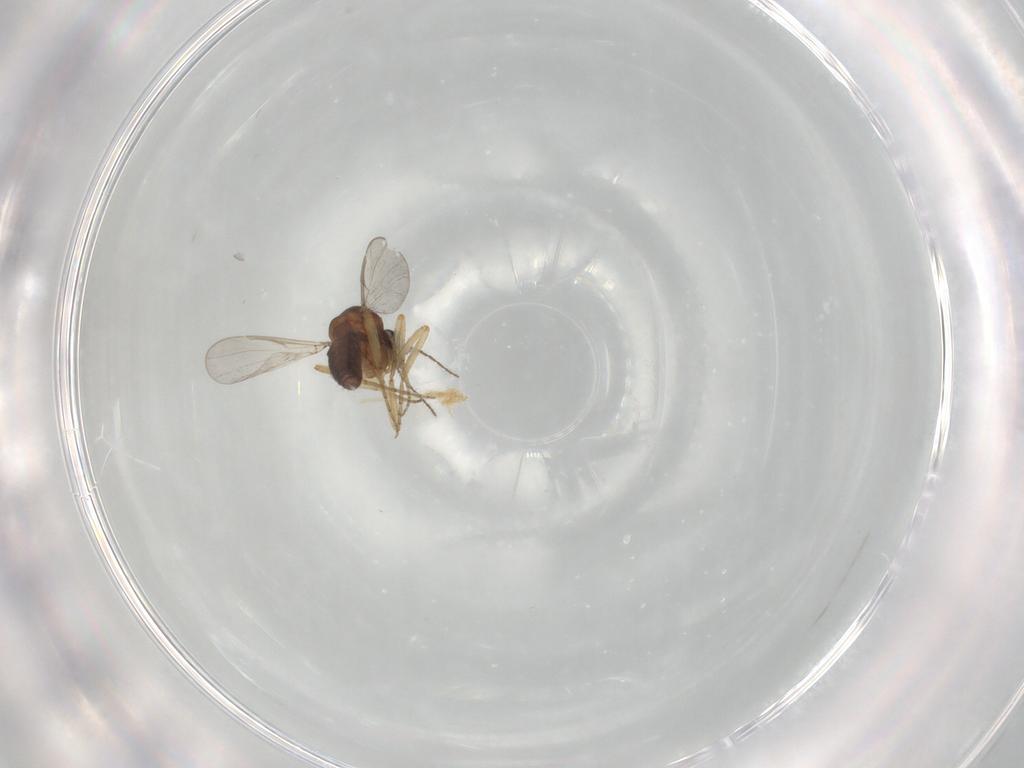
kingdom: Animalia
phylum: Arthropoda
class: Insecta
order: Diptera
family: Ceratopogonidae
